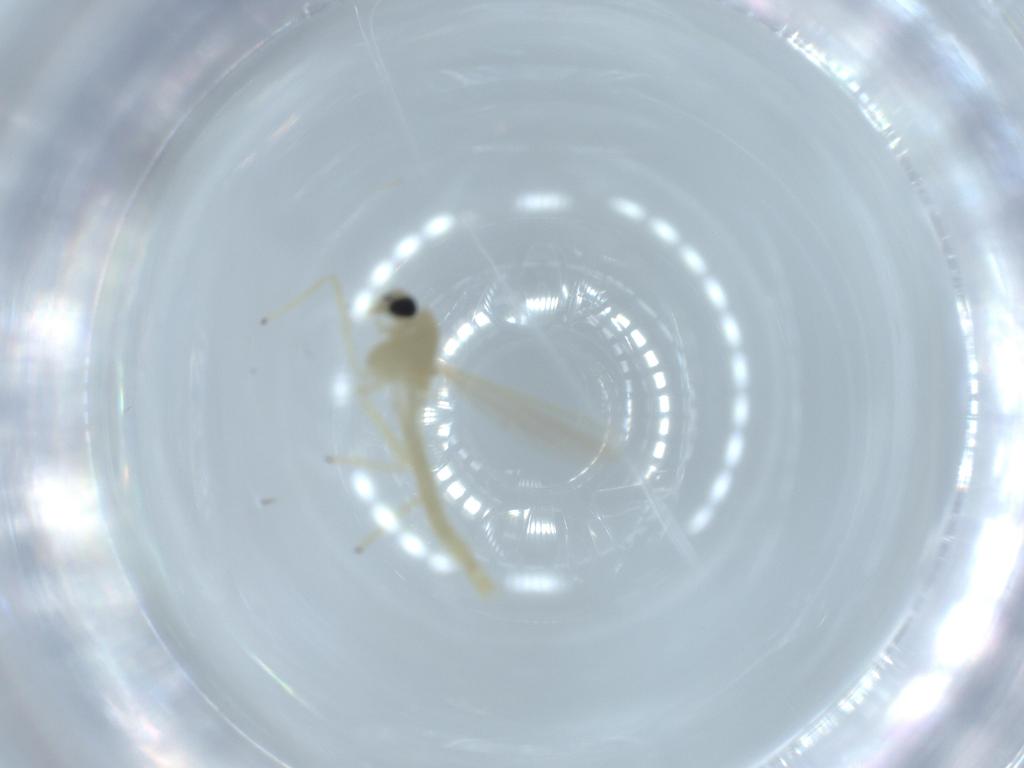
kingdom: Animalia
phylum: Arthropoda
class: Insecta
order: Diptera
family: Chironomidae
